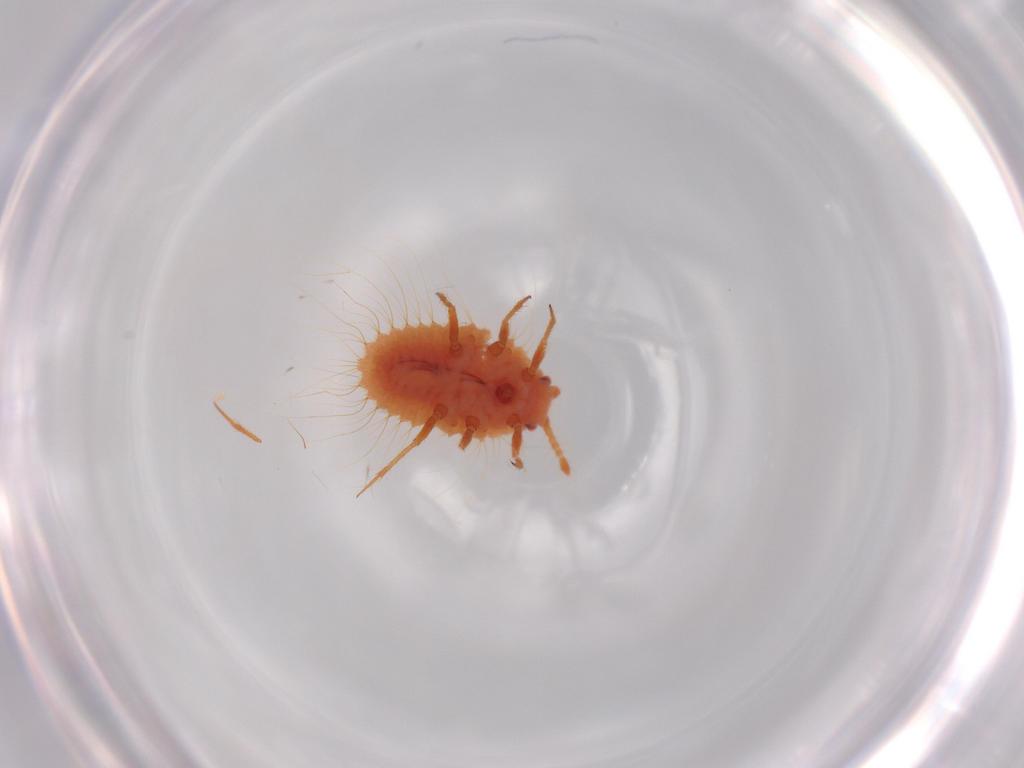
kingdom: Animalia
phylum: Arthropoda
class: Insecta
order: Hemiptera
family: Coccoidea_incertae_sedis
